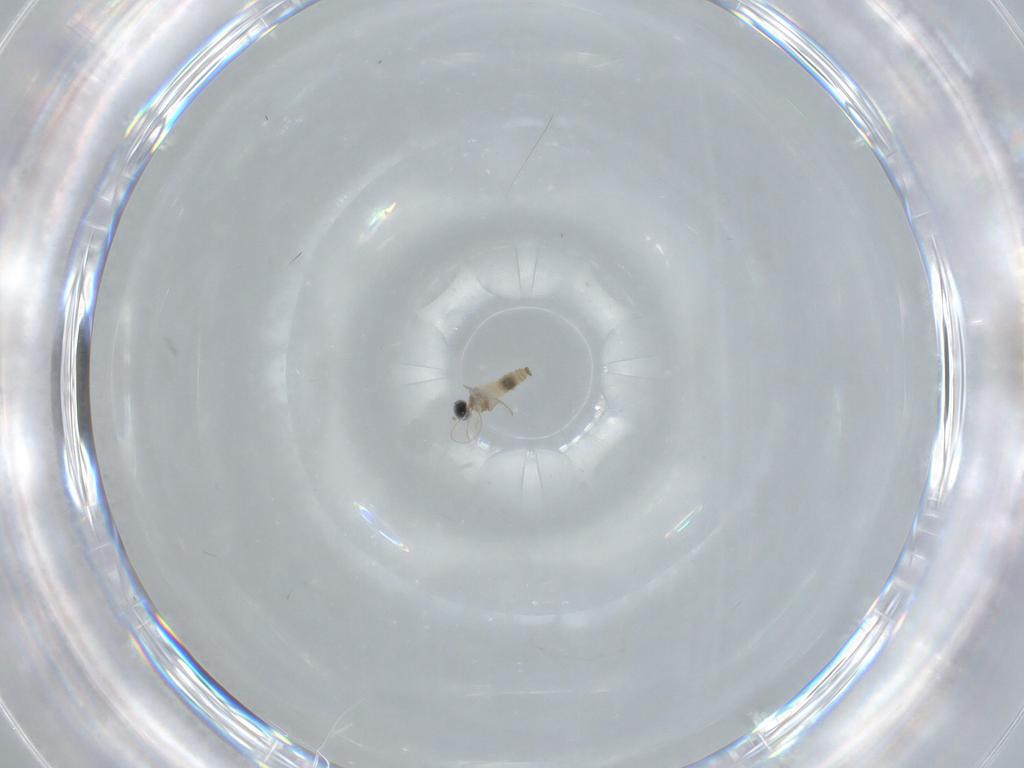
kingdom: Animalia
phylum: Arthropoda
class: Insecta
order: Diptera
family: Cecidomyiidae
